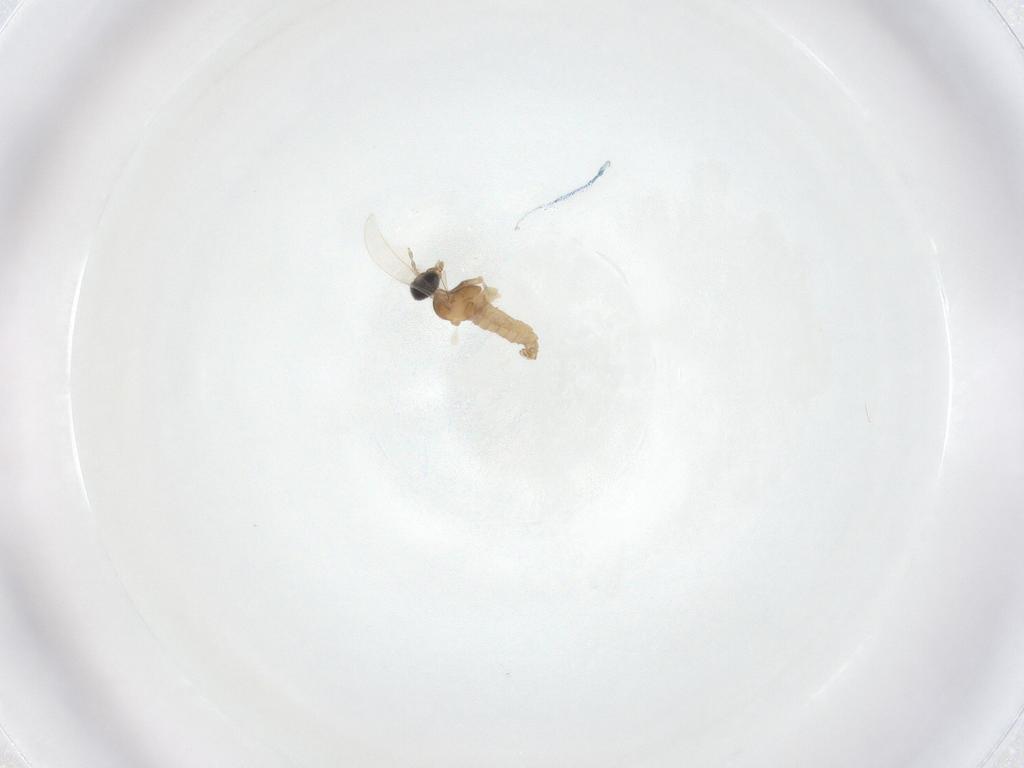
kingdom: Animalia
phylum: Arthropoda
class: Insecta
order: Diptera
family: Cecidomyiidae
